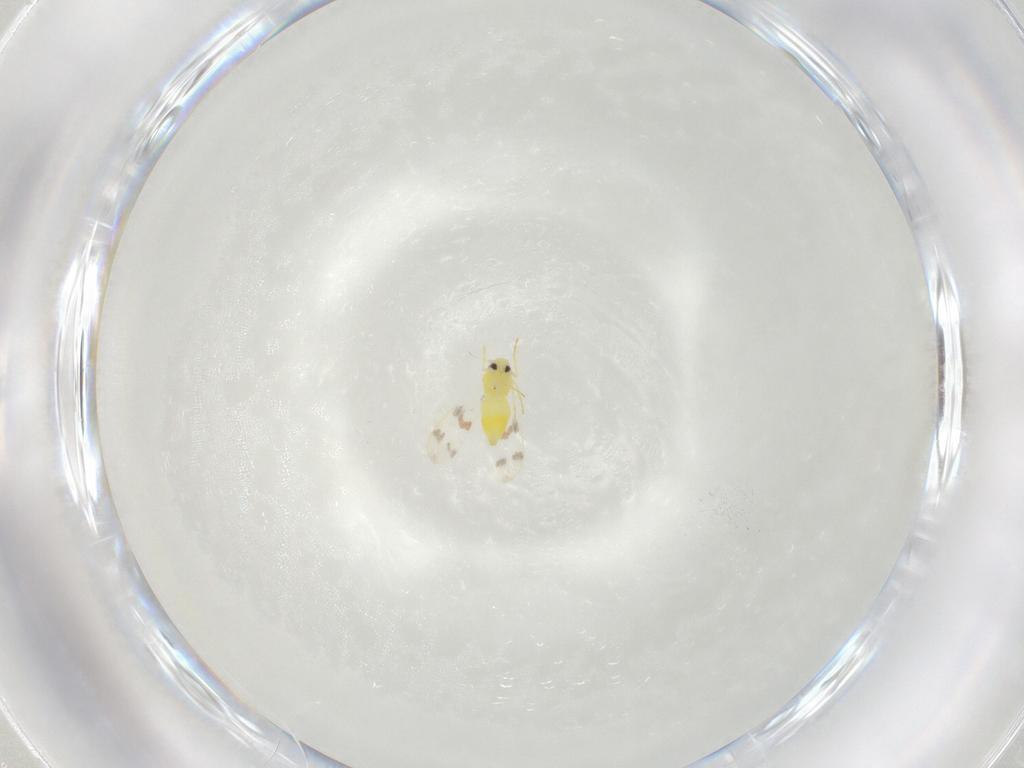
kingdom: Animalia
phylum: Arthropoda
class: Insecta
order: Hemiptera
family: Aleyrodidae
